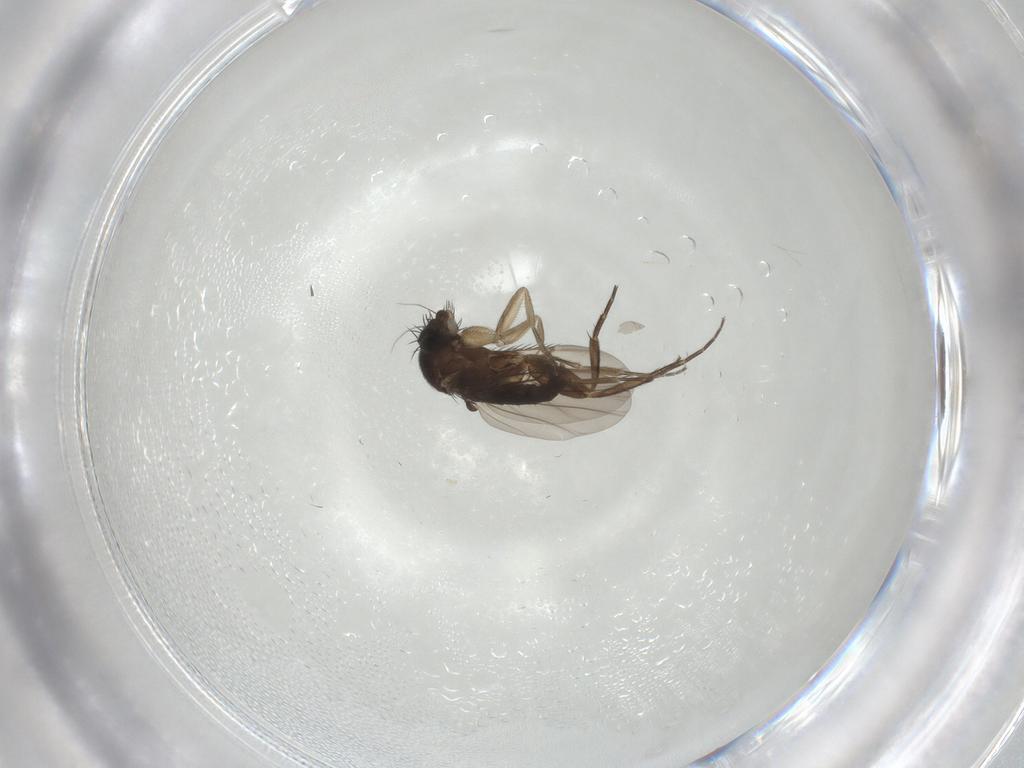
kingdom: Animalia
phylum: Arthropoda
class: Insecta
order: Diptera
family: Phoridae
